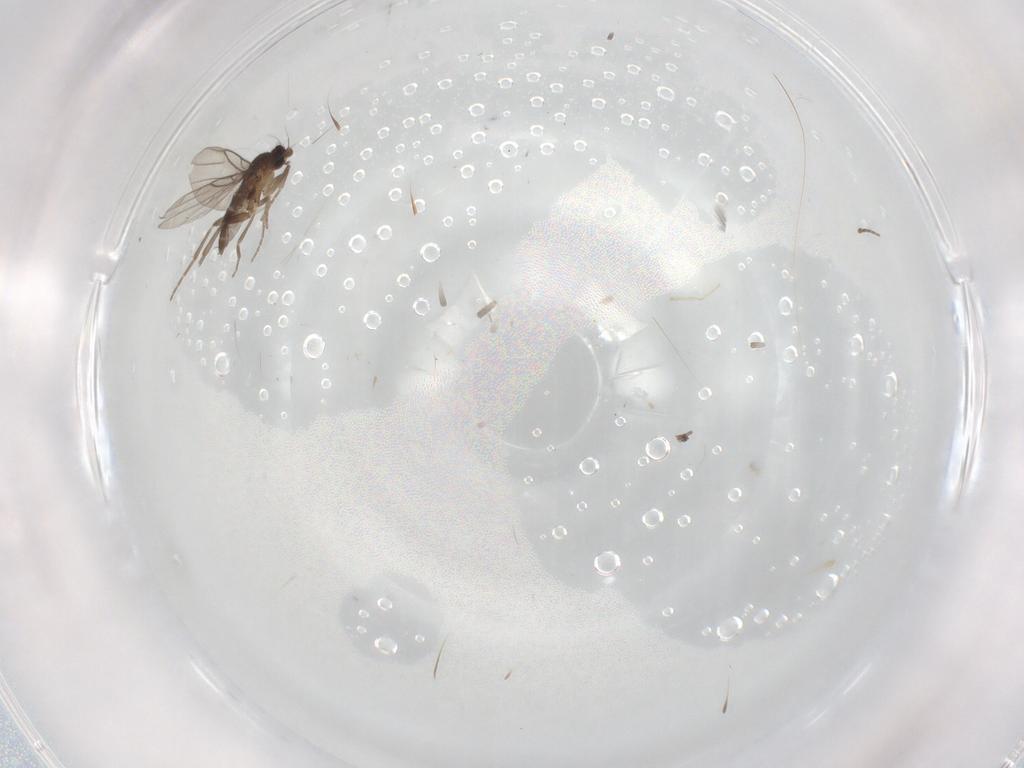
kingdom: Animalia
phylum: Arthropoda
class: Insecta
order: Diptera
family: Phoridae
